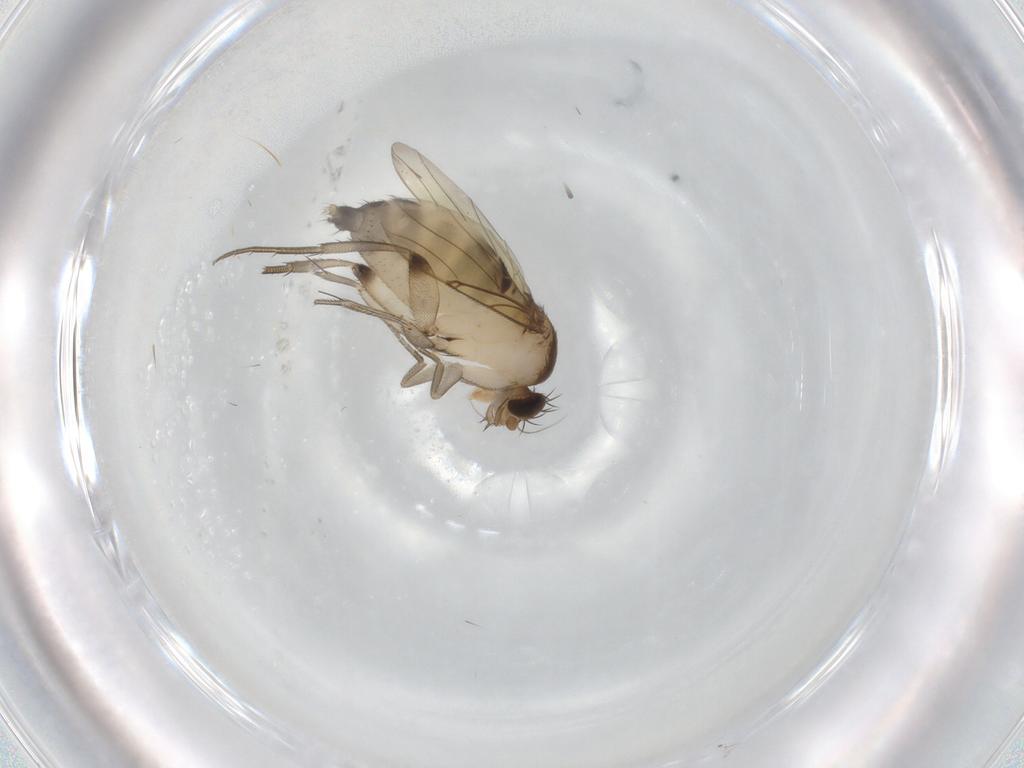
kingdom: Animalia
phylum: Arthropoda
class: Insecta
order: Diptera
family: Phoridae
